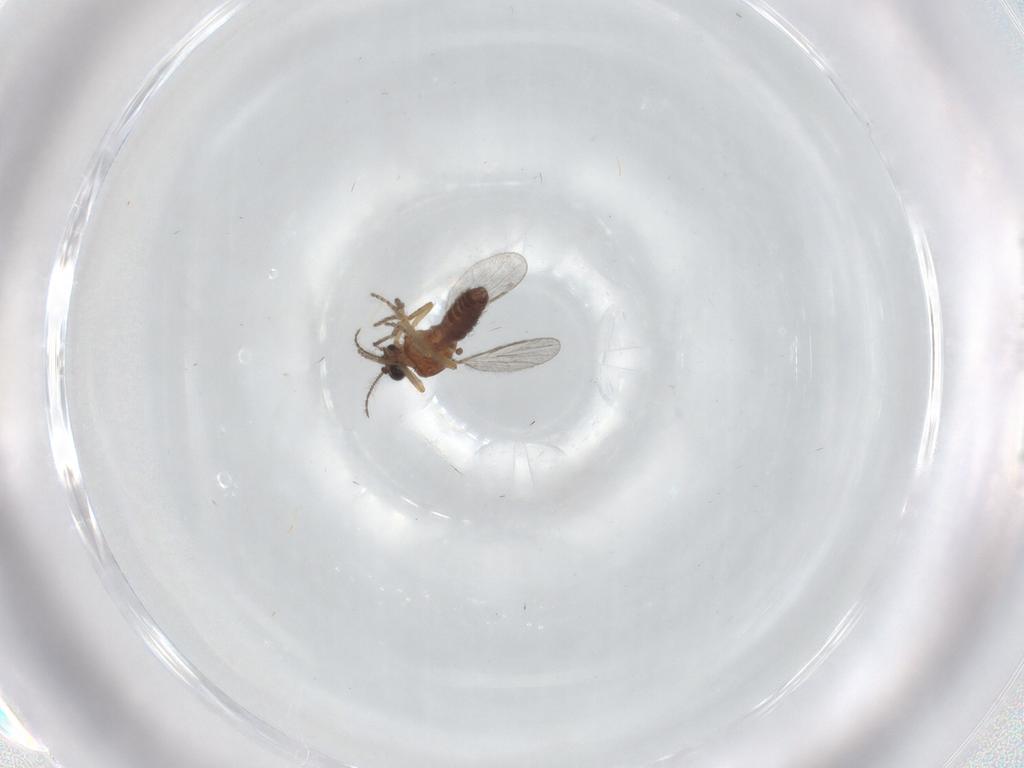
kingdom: Animalia
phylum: Arthropoda
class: Insecta
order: Diptera
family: Ceratopogonidae
